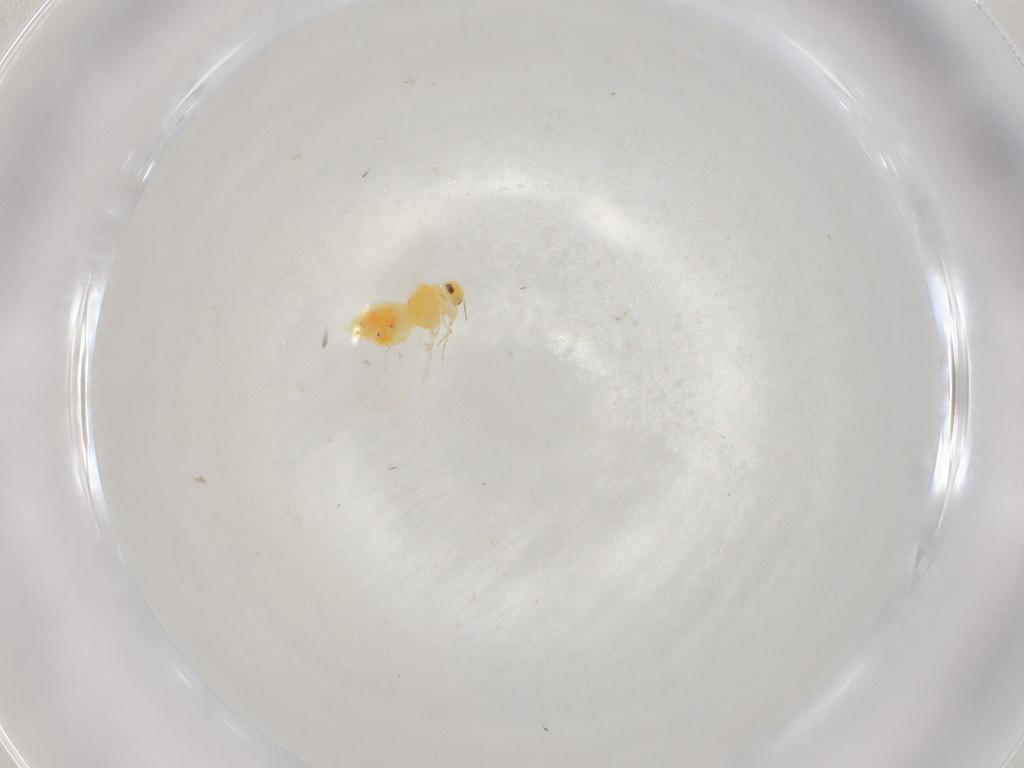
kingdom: Animalia
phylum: Arthropoda
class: Insecta
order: Hemiptera
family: Aleyrodidae
